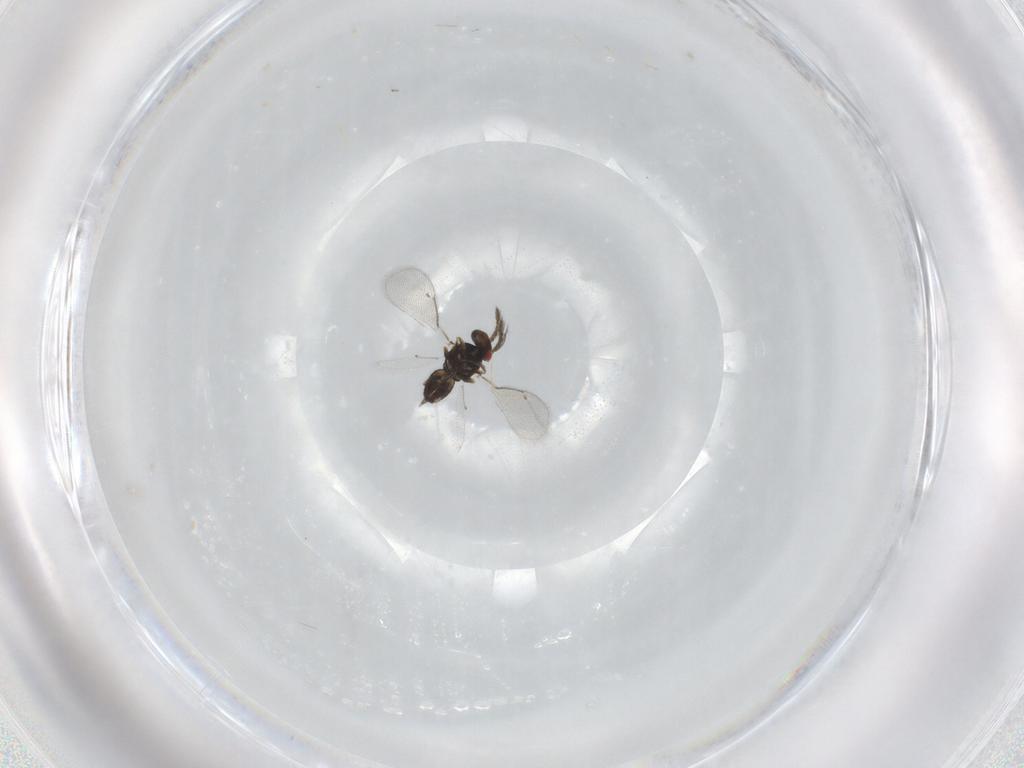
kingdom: Animalia
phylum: Arthropoda
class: Insecta
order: Hymenoptera
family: Eulophidae
